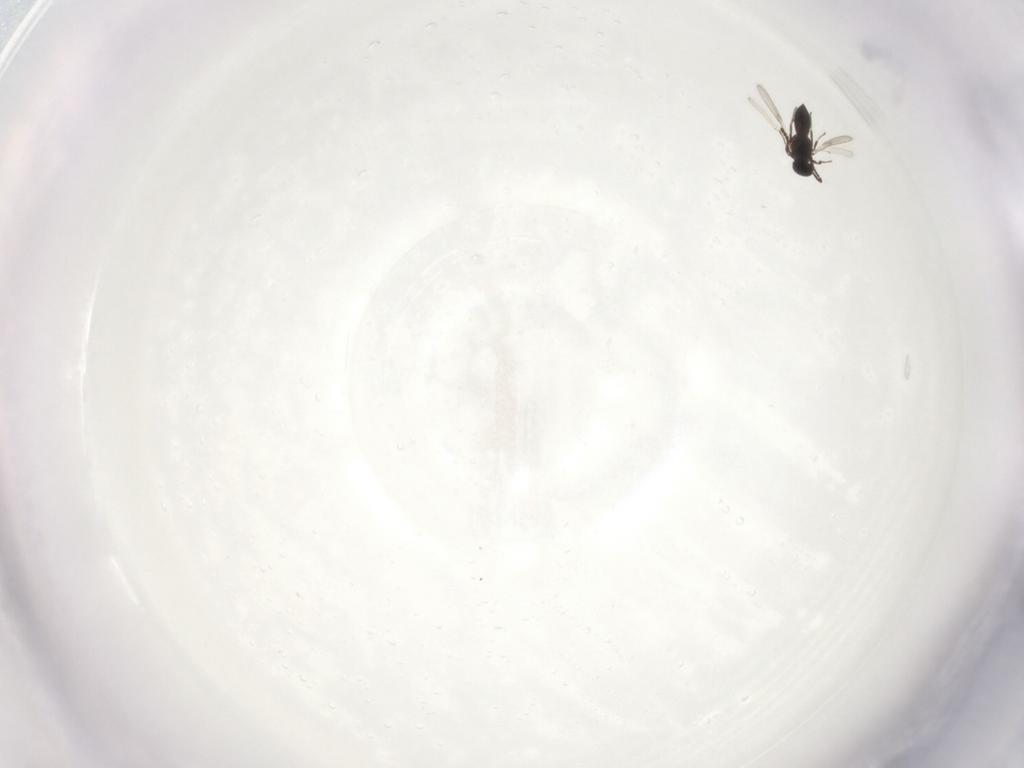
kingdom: Animalia
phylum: Arthropoda
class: Insecta
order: Hymenoptera
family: Scelionidae
